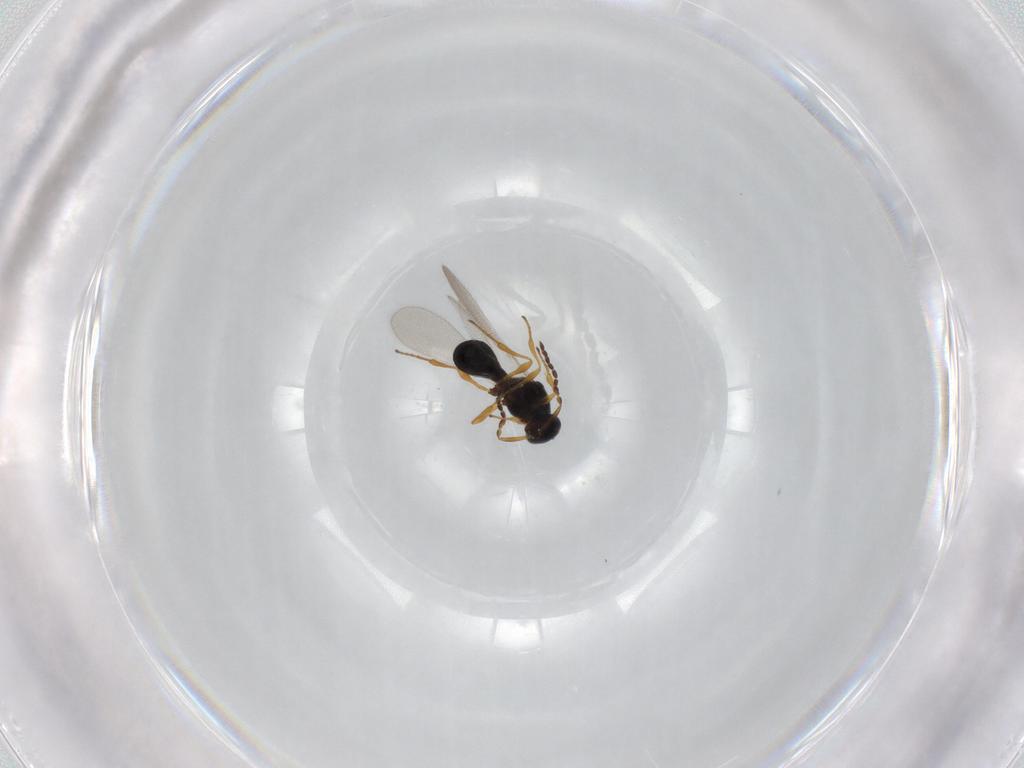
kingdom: Animalia
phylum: Arthropoda
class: Insecta
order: Diptera
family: Mythicomyiidae
